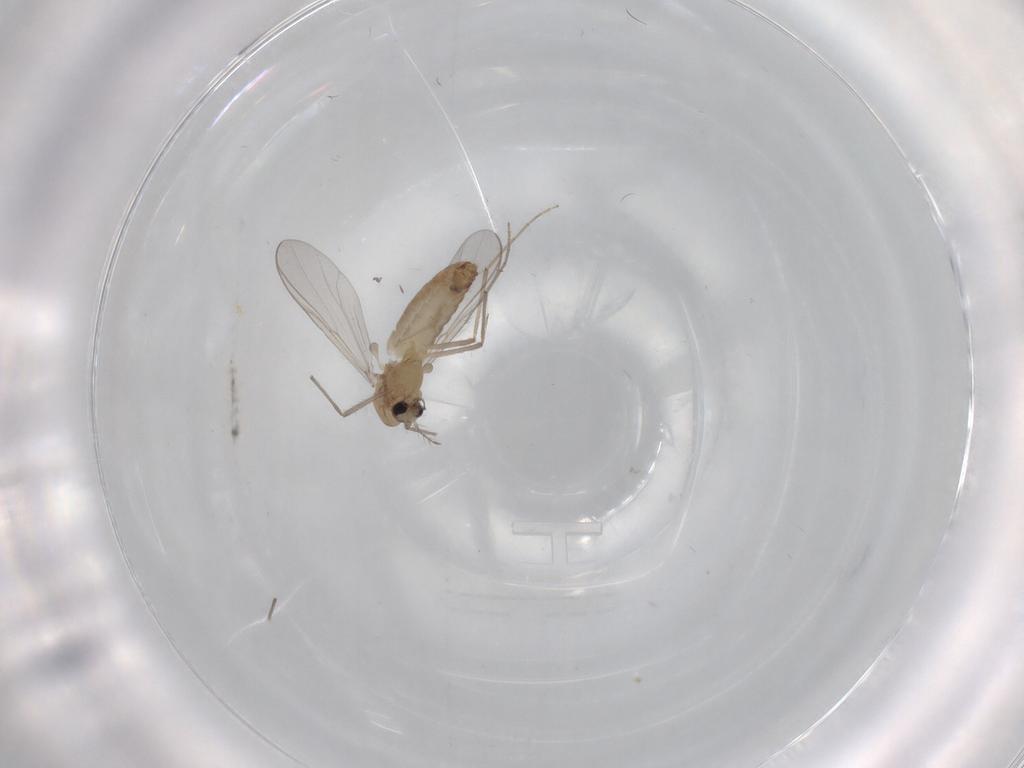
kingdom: Animalia
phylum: Arthropoda
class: Insecta
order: Diptera
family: Chironomidae
